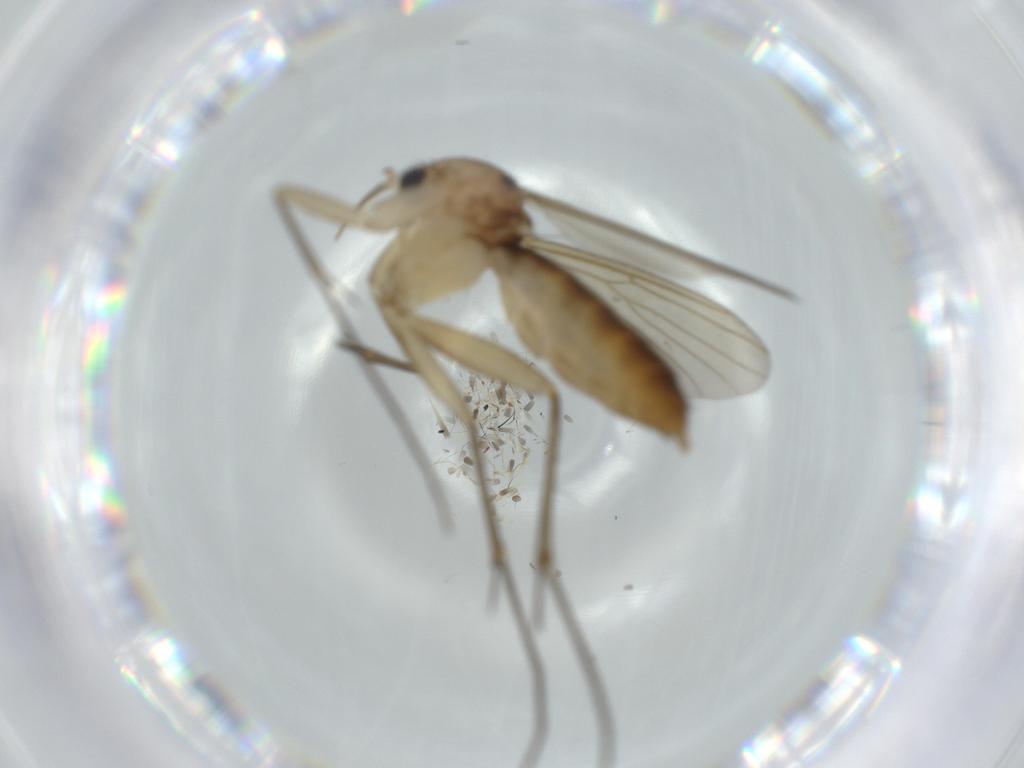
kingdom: Animalia
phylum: Arthropoda
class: Insecta
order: Diptera
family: Mycetophilidae
